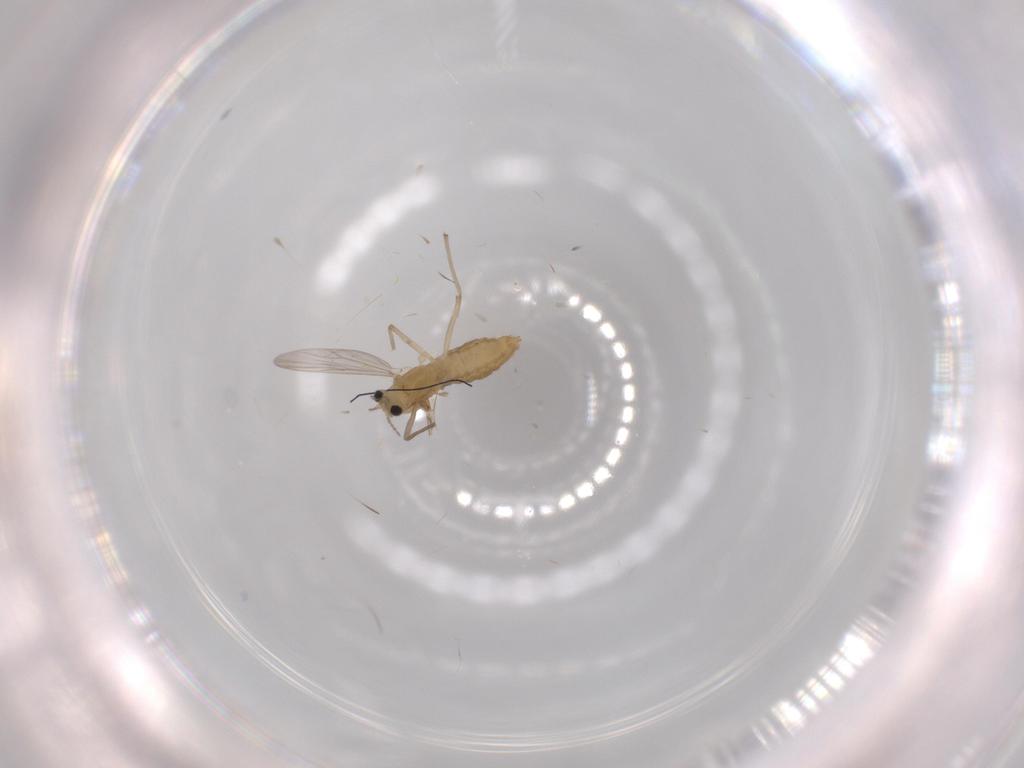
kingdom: Animalia
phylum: Arthropoda
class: Insecta
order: Diptera
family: Chironomidae
